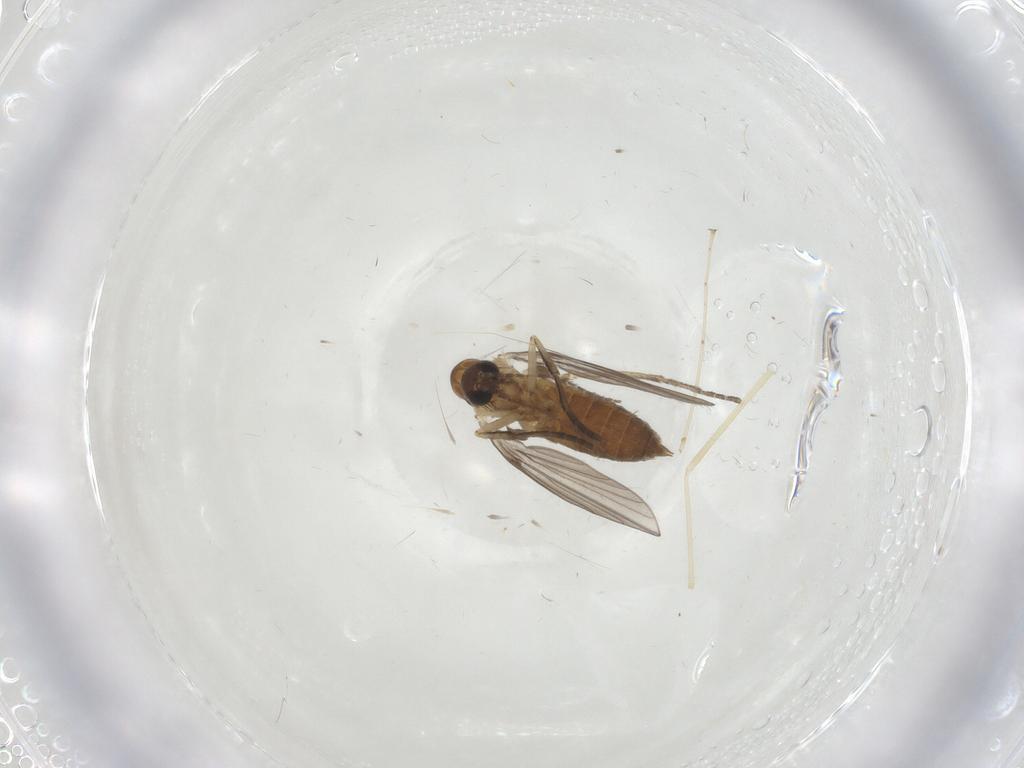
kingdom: Animalia
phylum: Arthropoda
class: Insecta
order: Diptera
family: Cecidomyiidae
